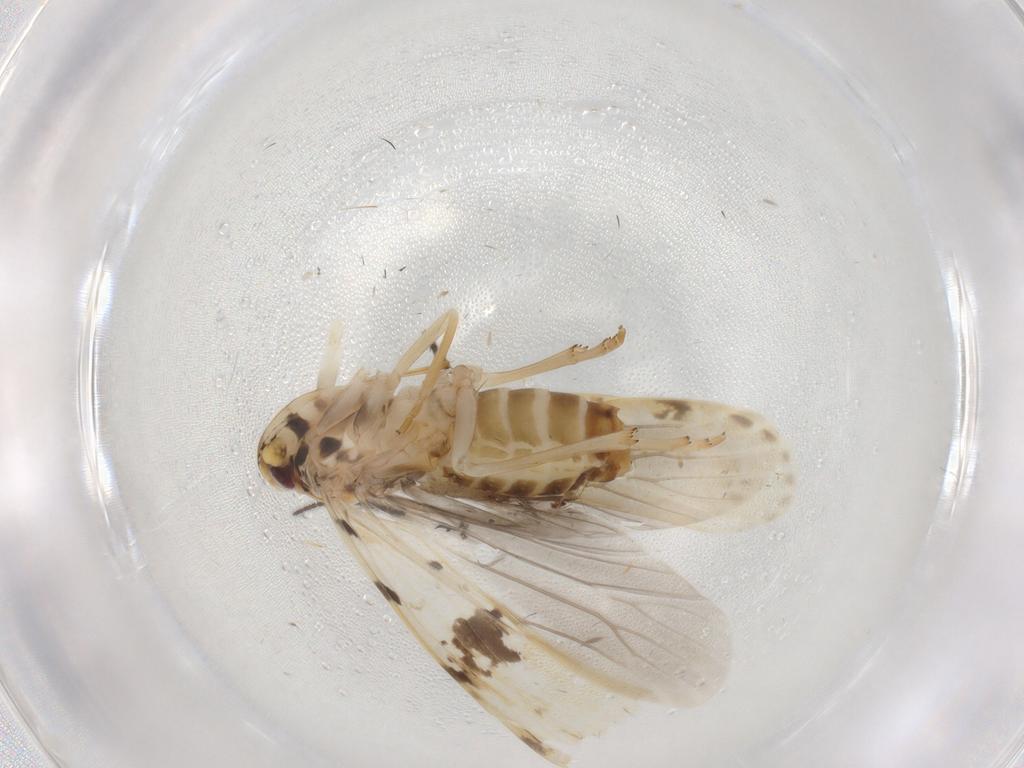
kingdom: Animalia
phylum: Arthropoda
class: Insecta
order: Hemiptera
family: Achilidae
